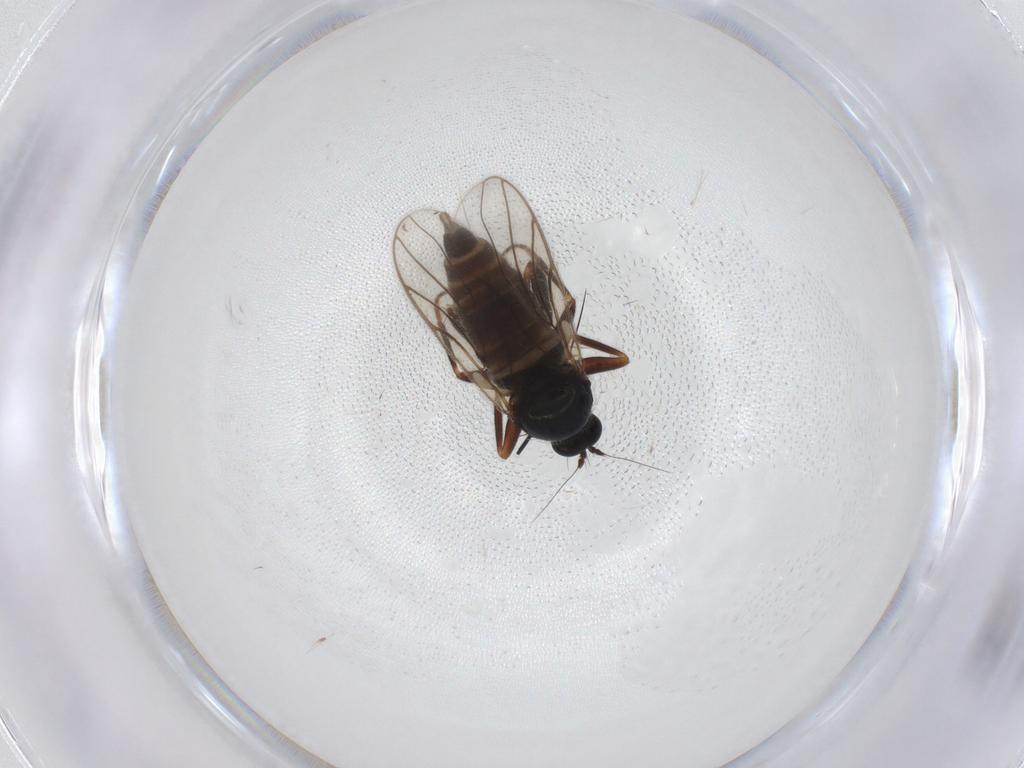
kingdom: Animalia
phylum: Arthropoda
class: Insecta
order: Diptera
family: Cecidomyiidae
